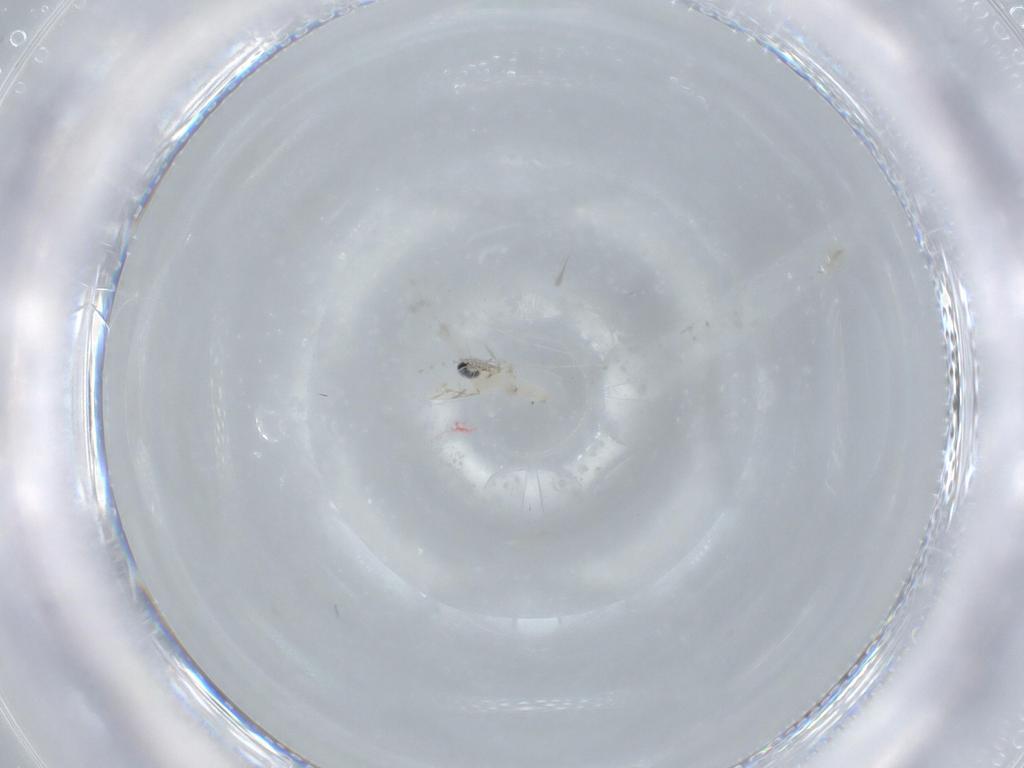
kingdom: Animalia
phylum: Arthropoda
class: Insecta
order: Diptera
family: Cecidomyiidae
